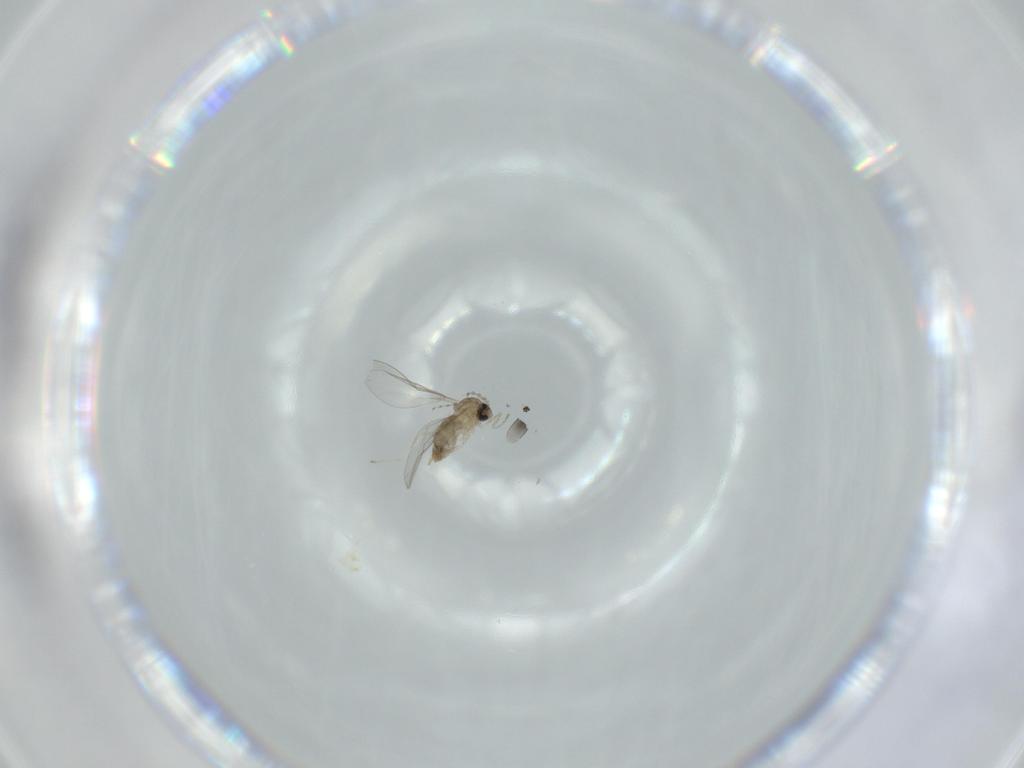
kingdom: Animalia
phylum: Arthropoda
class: Insecta
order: Diptera
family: Cecidomyiidae
